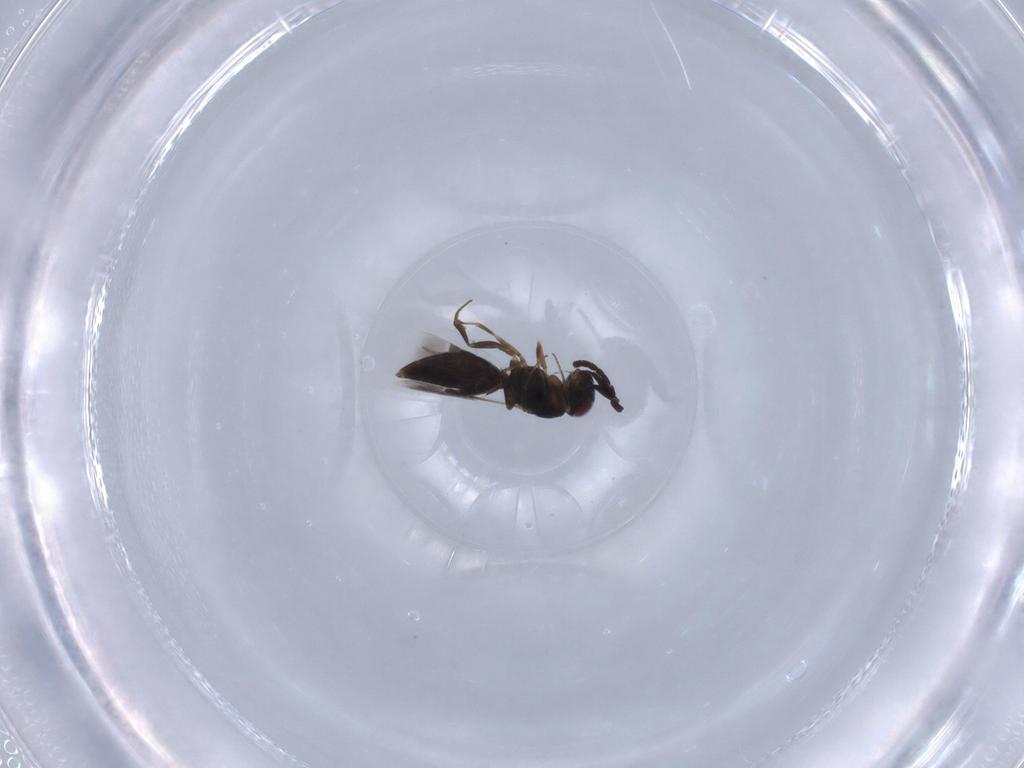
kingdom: Animalia
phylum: Arthropoda
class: Insecta
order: Hymenoptera
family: Megaspilidae
